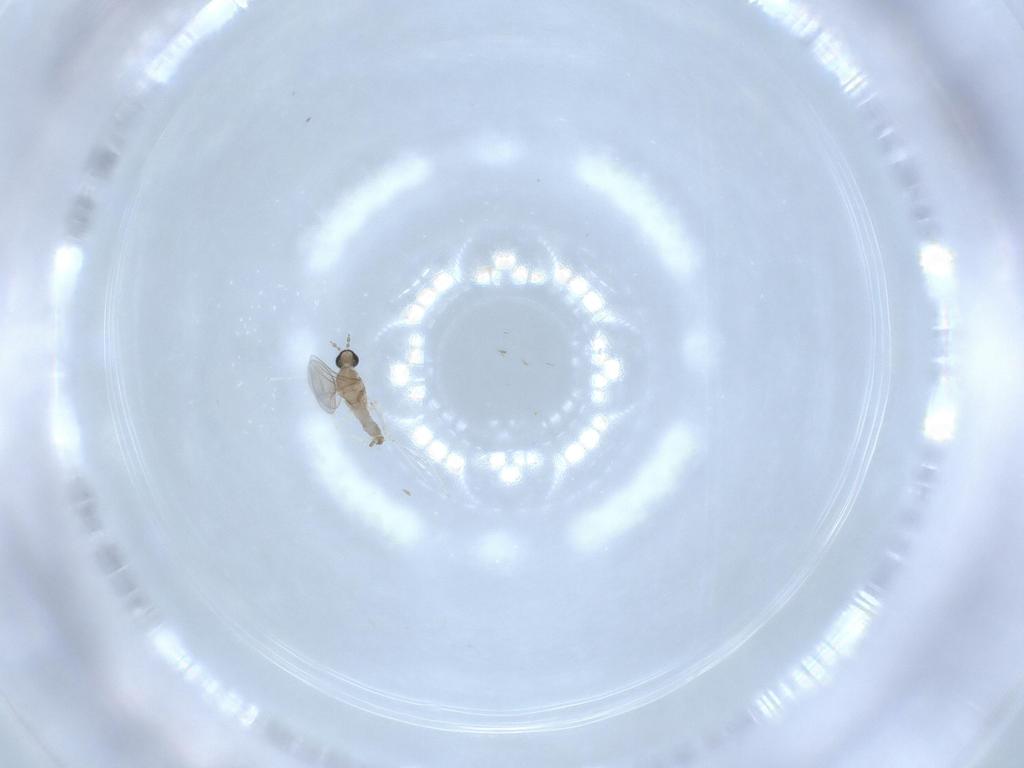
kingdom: Animalia
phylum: Arthropoda
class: Insecta
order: Diptera
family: Cecidomyiidae
